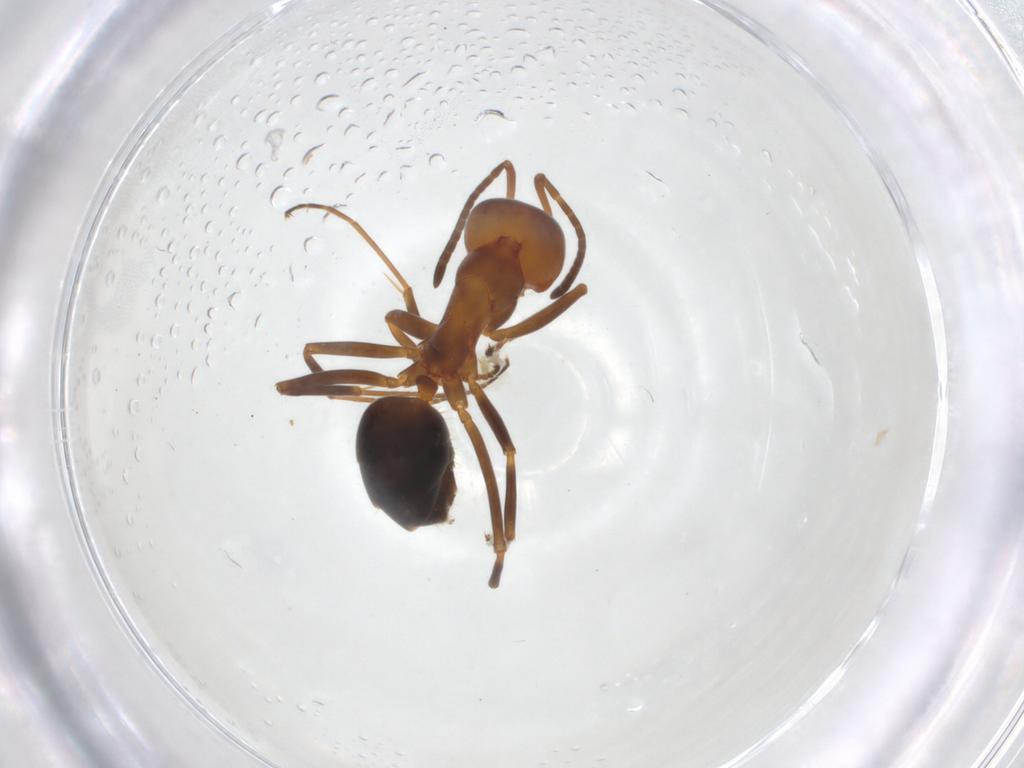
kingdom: Animalia
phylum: Arthropoda
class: Insecta
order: Hymenoptera
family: Formicidae
